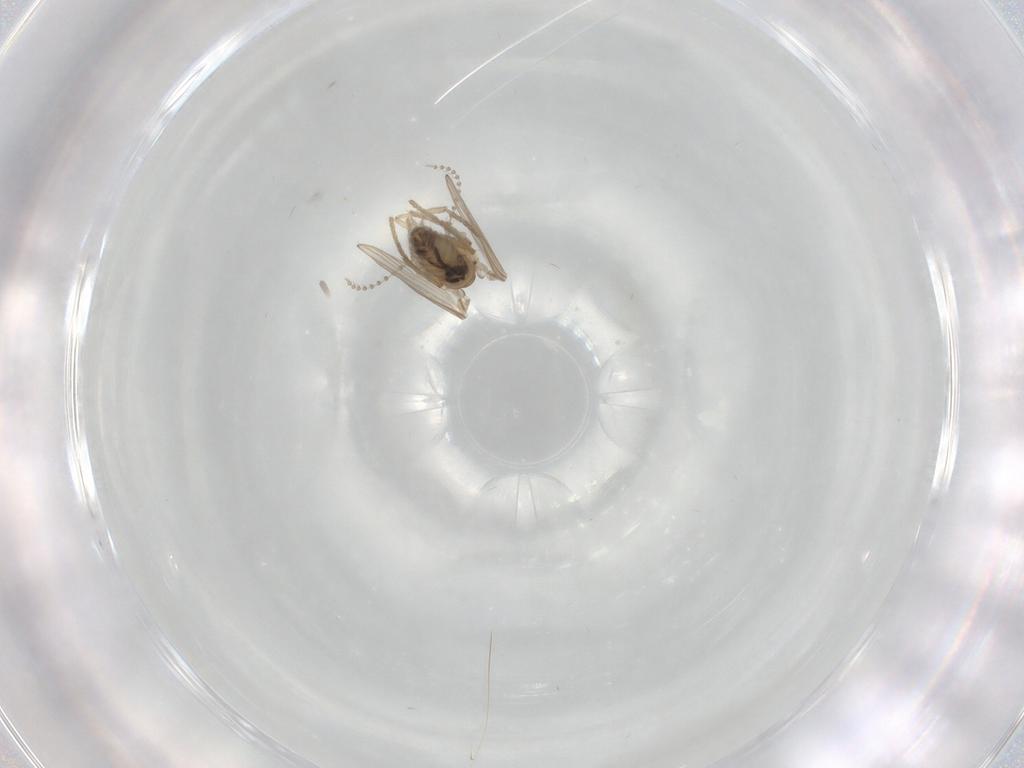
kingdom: Animalia
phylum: Arthropoda
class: Insecta
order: Diptera
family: Psychodidae
